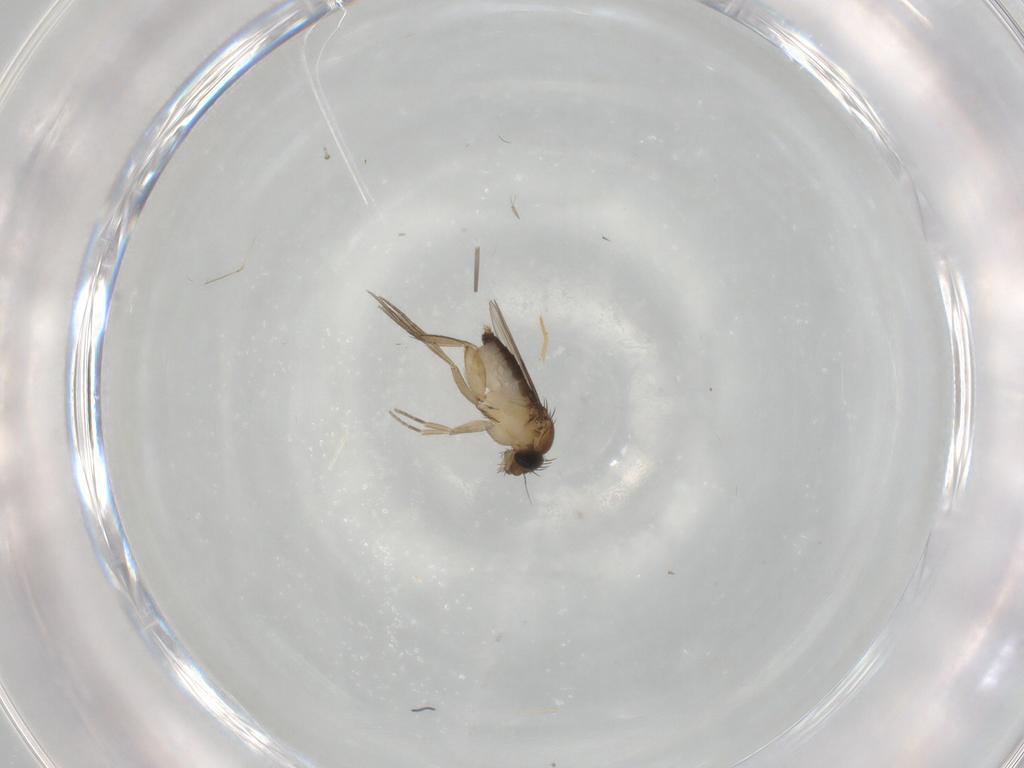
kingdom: Animalia
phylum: Arthropoda
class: Insecta
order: Diptera
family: Phoridae
